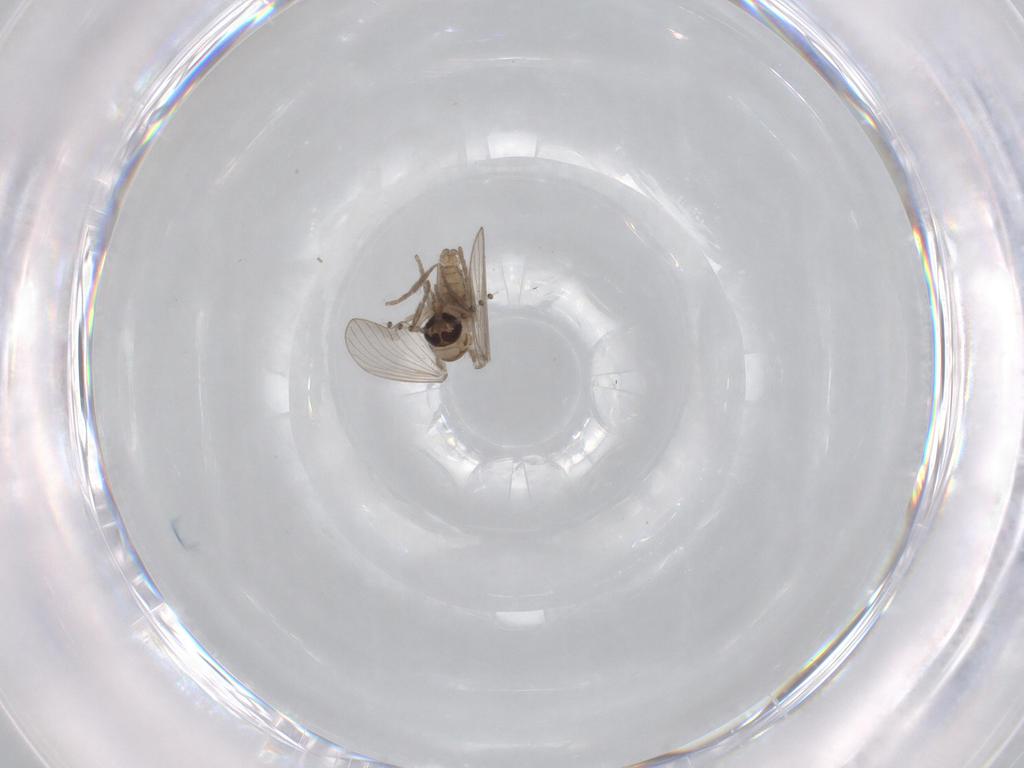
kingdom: Animalia
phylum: Arthropoda
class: Insecta
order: Diptera
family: Psychodidae
